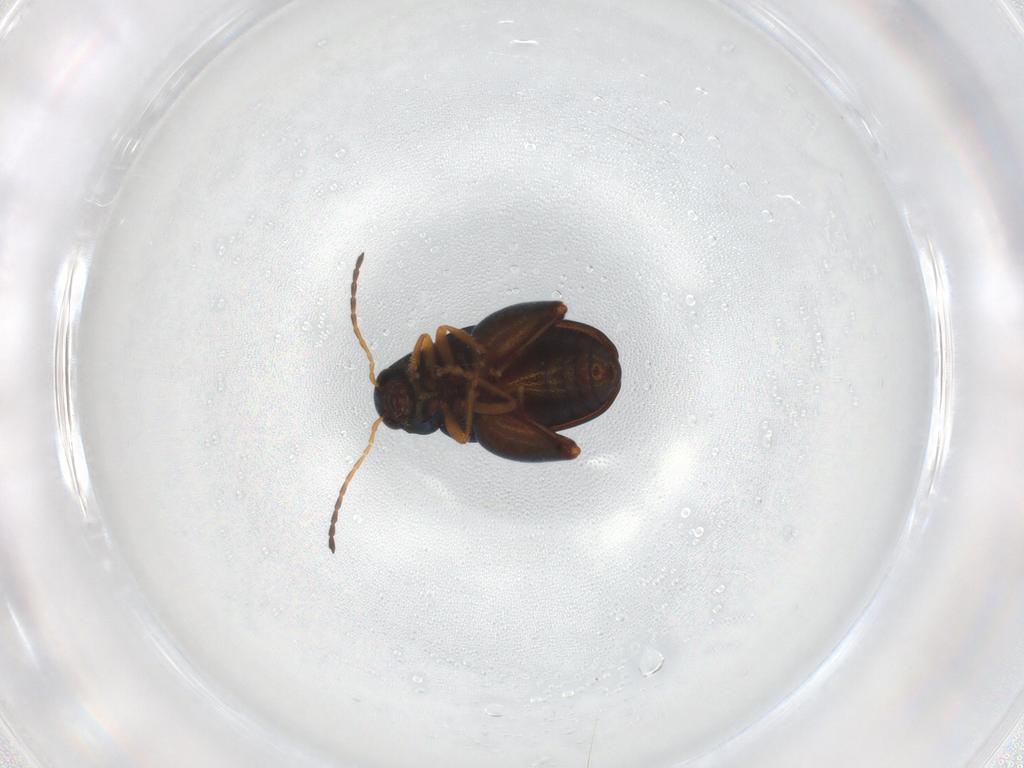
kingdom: Animalia
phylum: Arthropoda
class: Insecta
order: Coleoptera
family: Chrysomelidae
